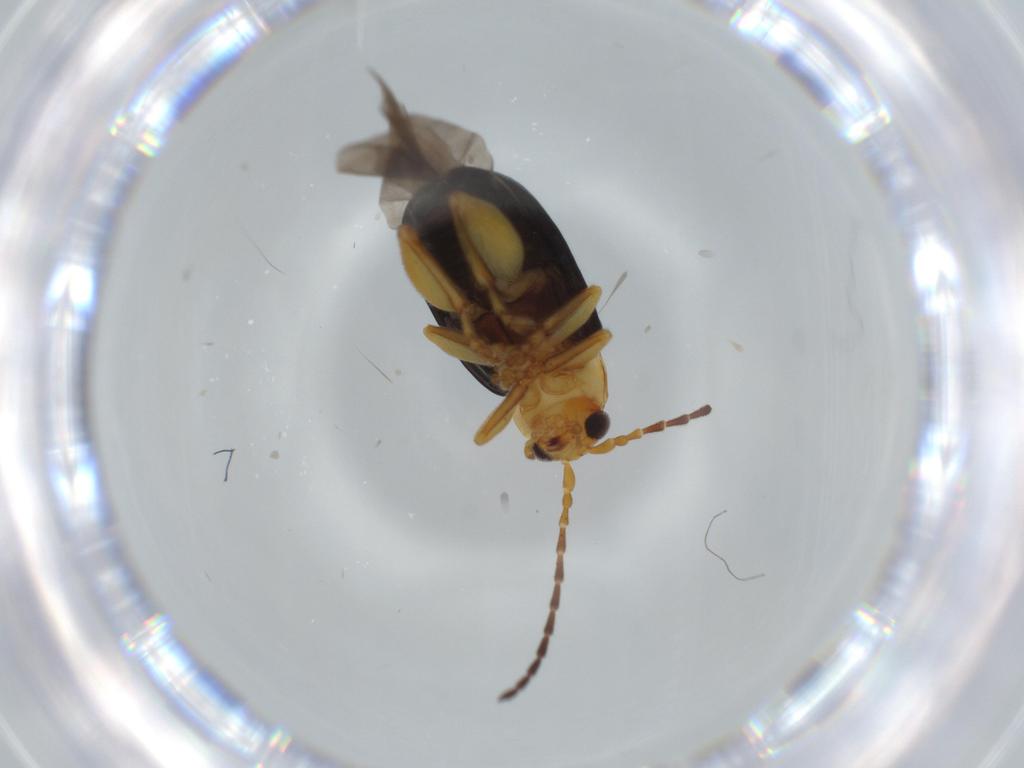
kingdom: Animalia
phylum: Arthropoda
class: Insecta
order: Coleoptera
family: Chrysomelidae
